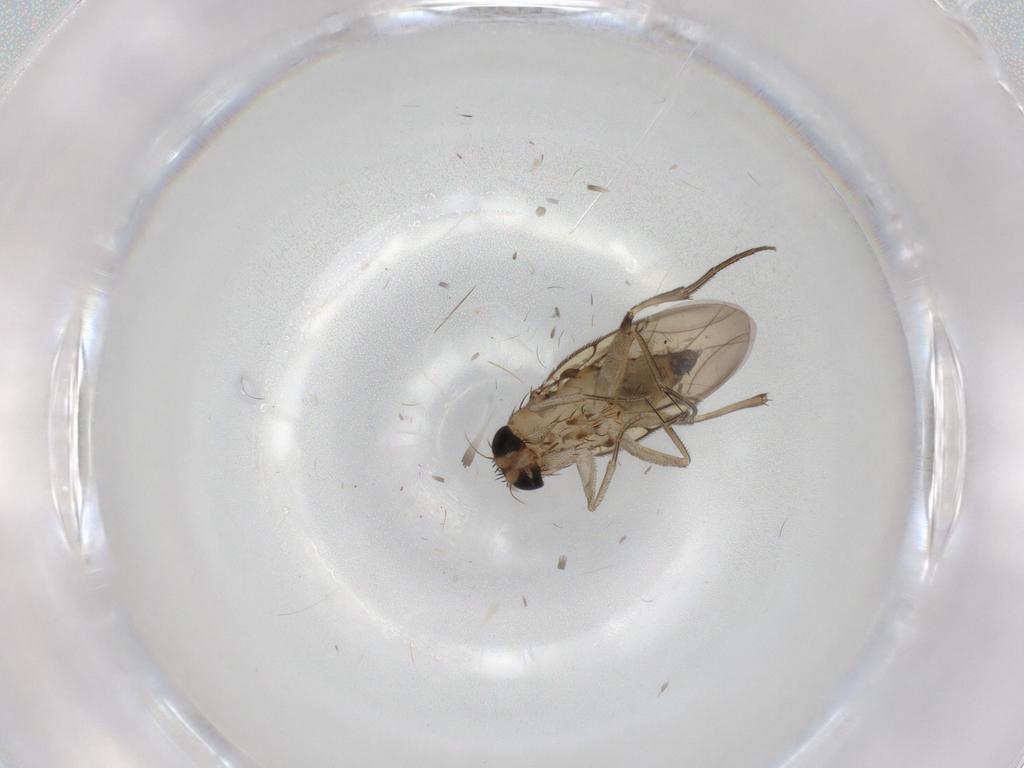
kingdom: Animalia
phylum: Arthropoda
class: Insecta
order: Diptera
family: Phoridae
